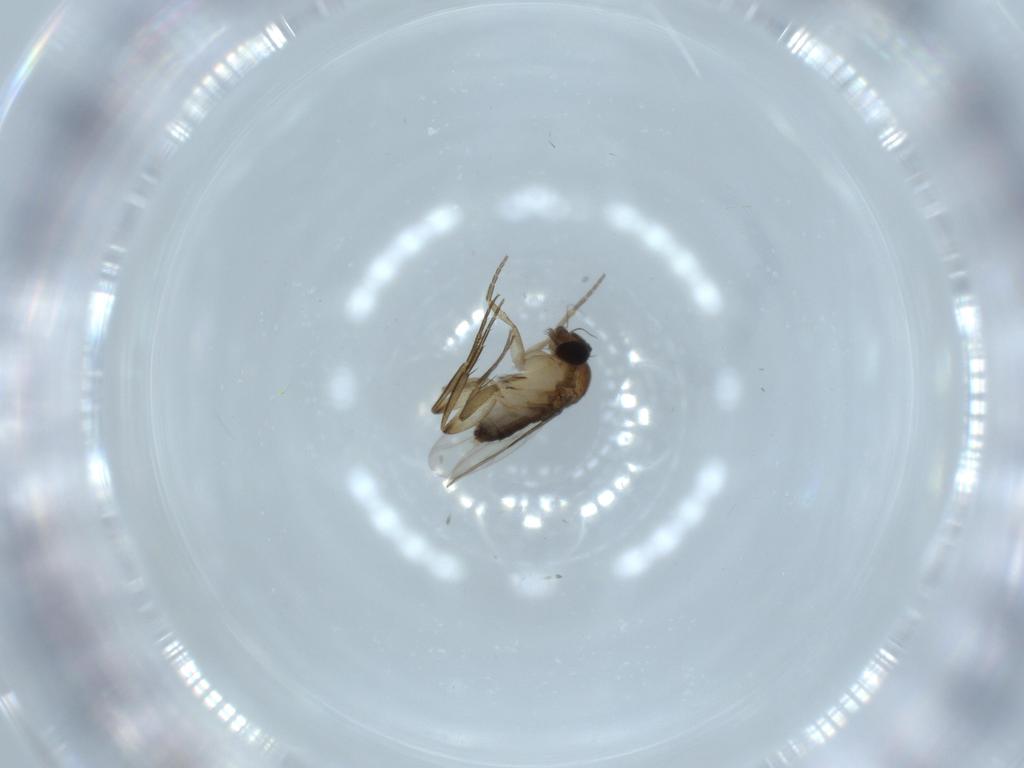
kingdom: Animalia
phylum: Arthropoda
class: Insecta
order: Diptera
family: Phoridae
